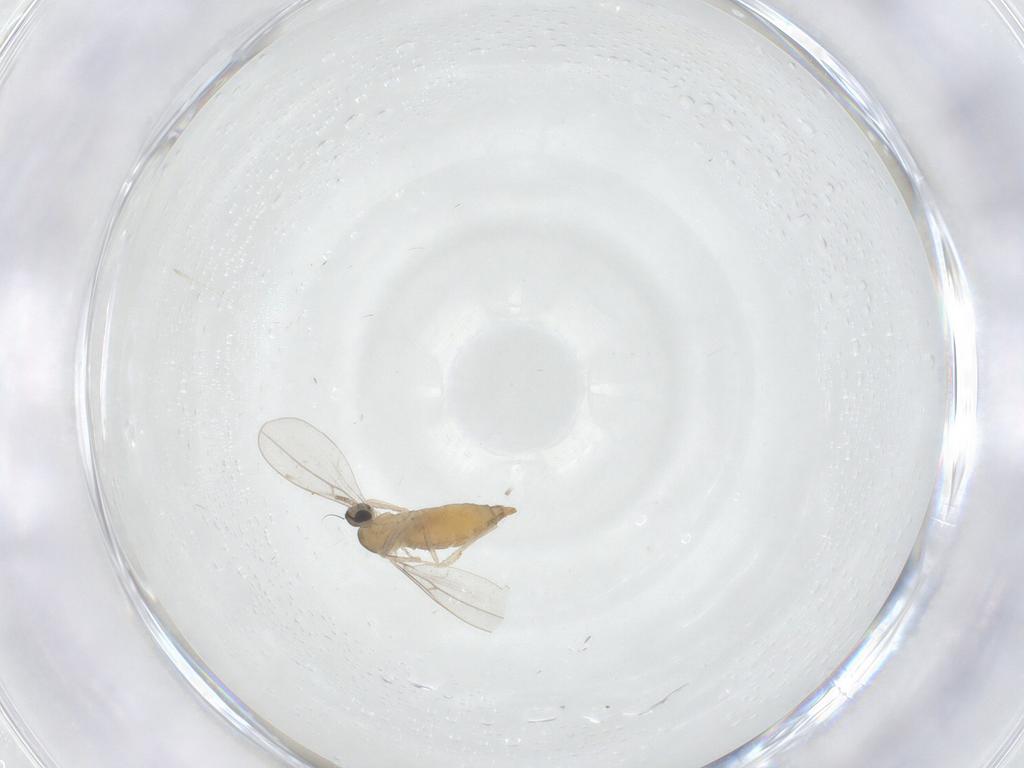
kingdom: Animalia
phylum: Arthropoda
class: Insecta
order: Diptera
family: Cecidomyiidae
